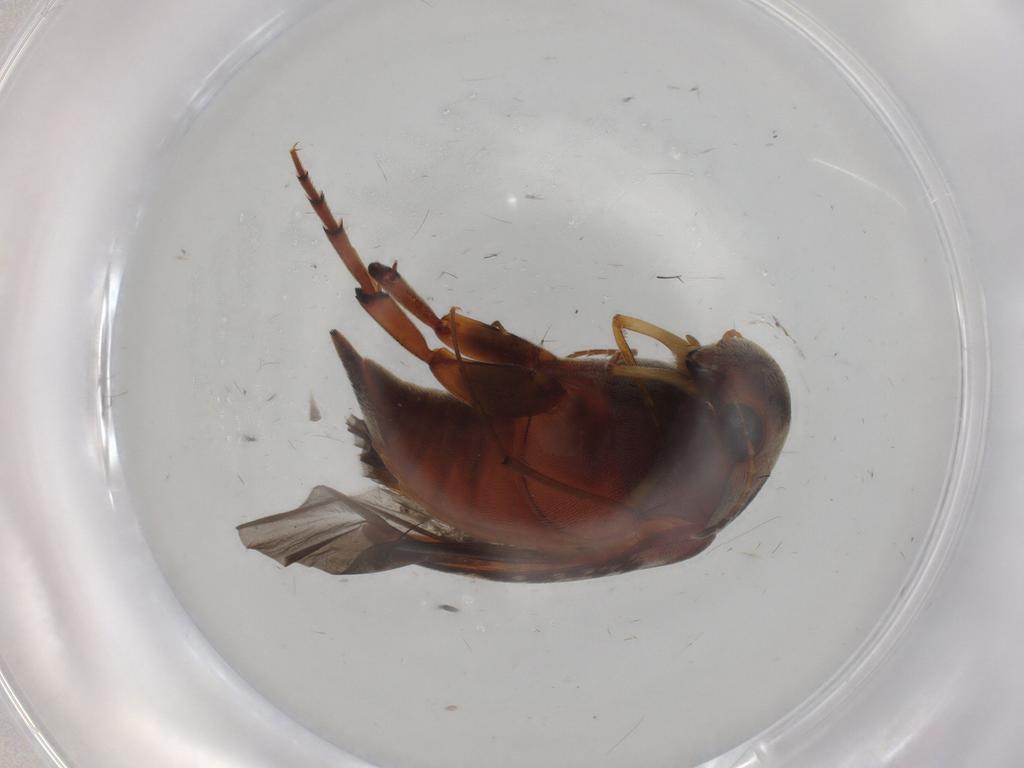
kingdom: Animalia
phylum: Arthropoda
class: Insecta
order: Coleoptera
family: Mordellidae
